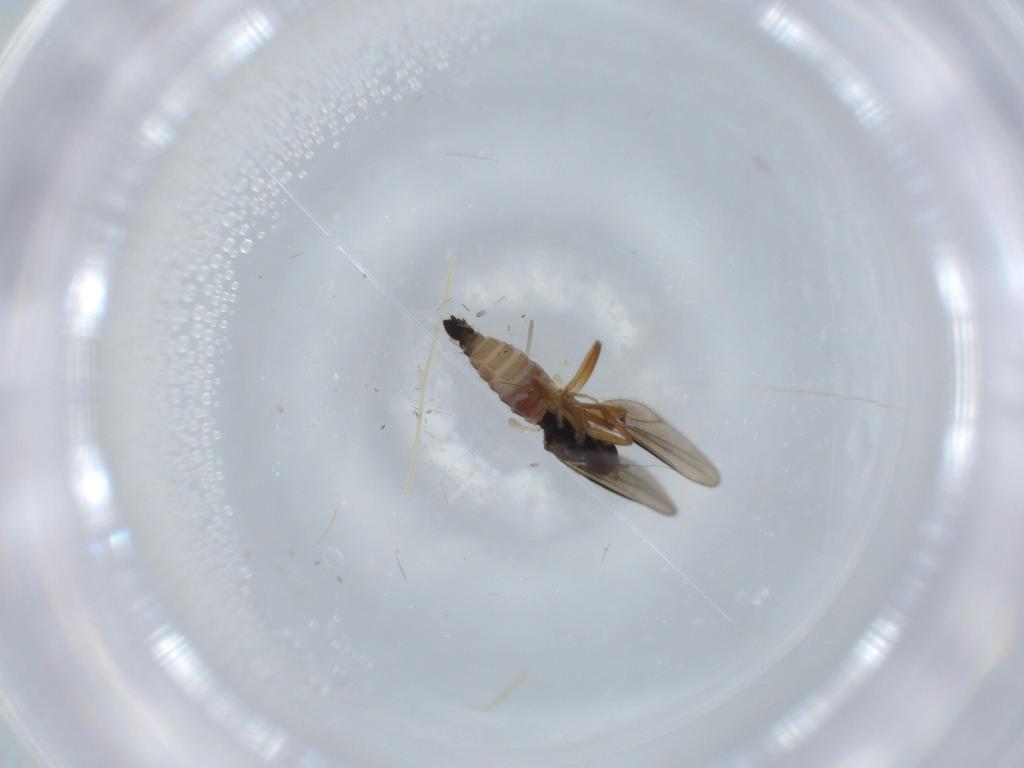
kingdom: Animalia
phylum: Arthropoda
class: Insecta
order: Diptera
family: Hybotidae
